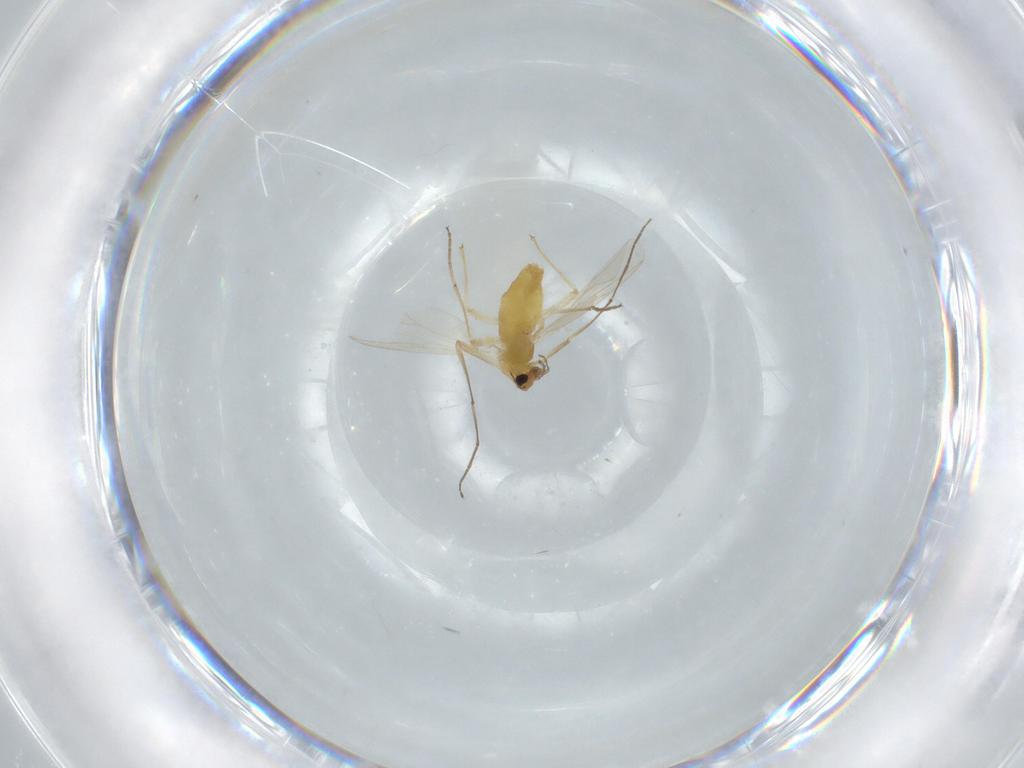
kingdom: Animalia
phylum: Arthropoda
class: Insecta
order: Diptera
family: Chironomidae
